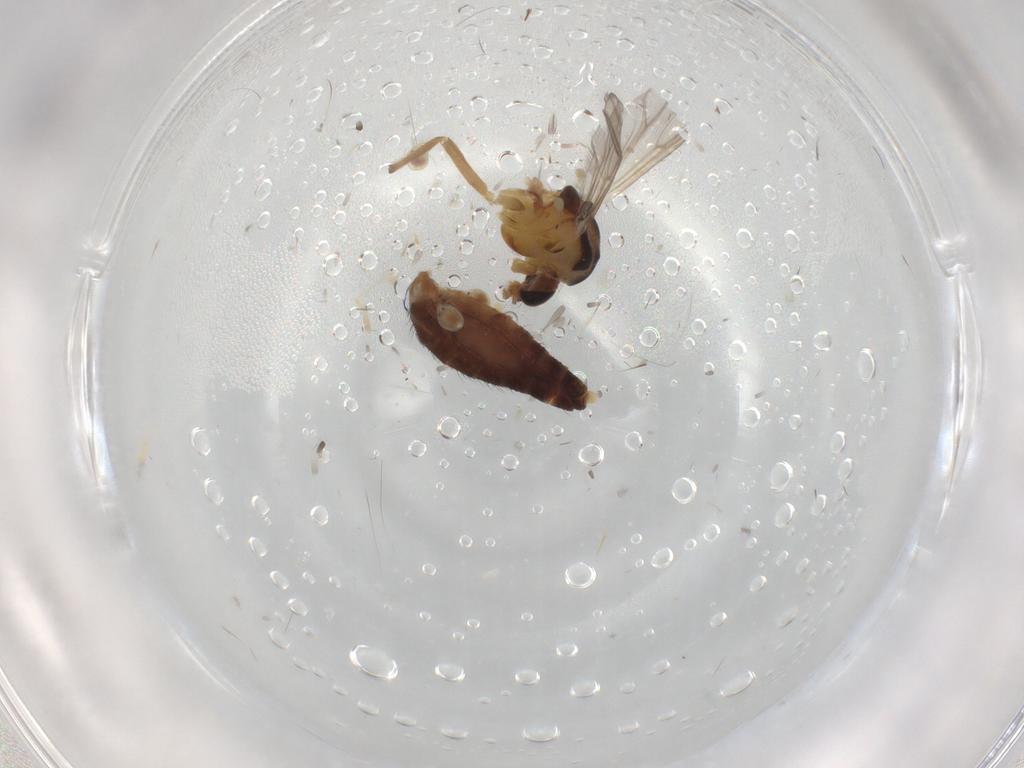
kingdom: Animalia
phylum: Arthropoda
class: Insecta
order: Diptera
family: Chironomidae
